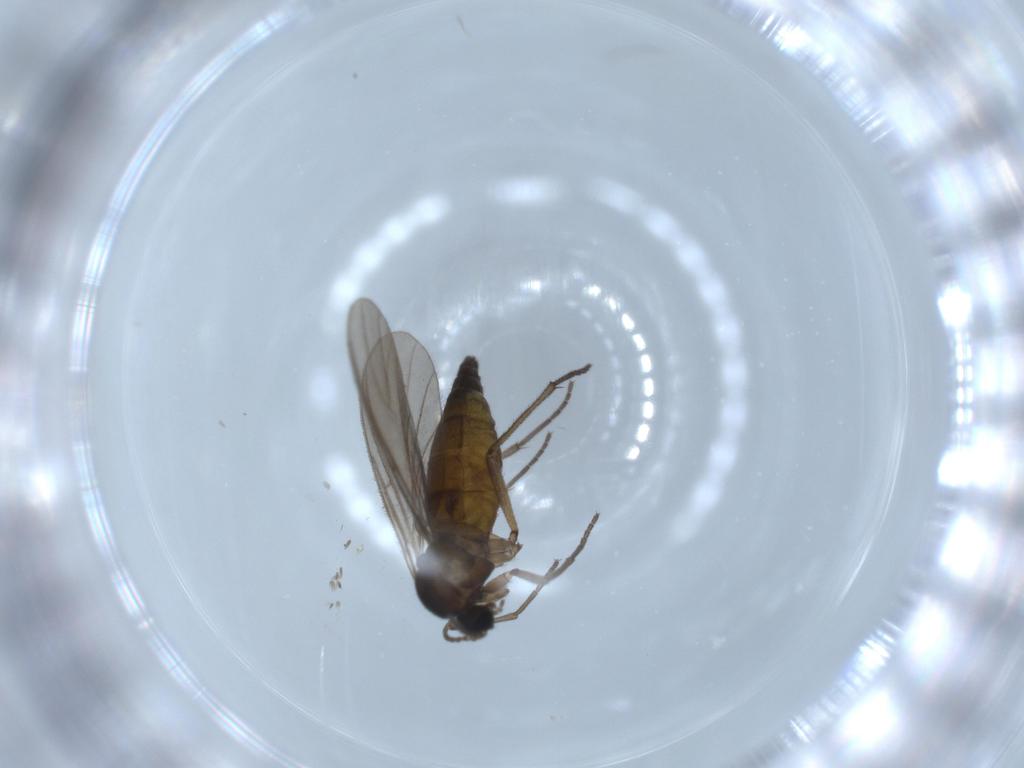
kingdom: Animalia
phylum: Arthropoda
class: Insecta
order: Diptera
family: Sciaridae
